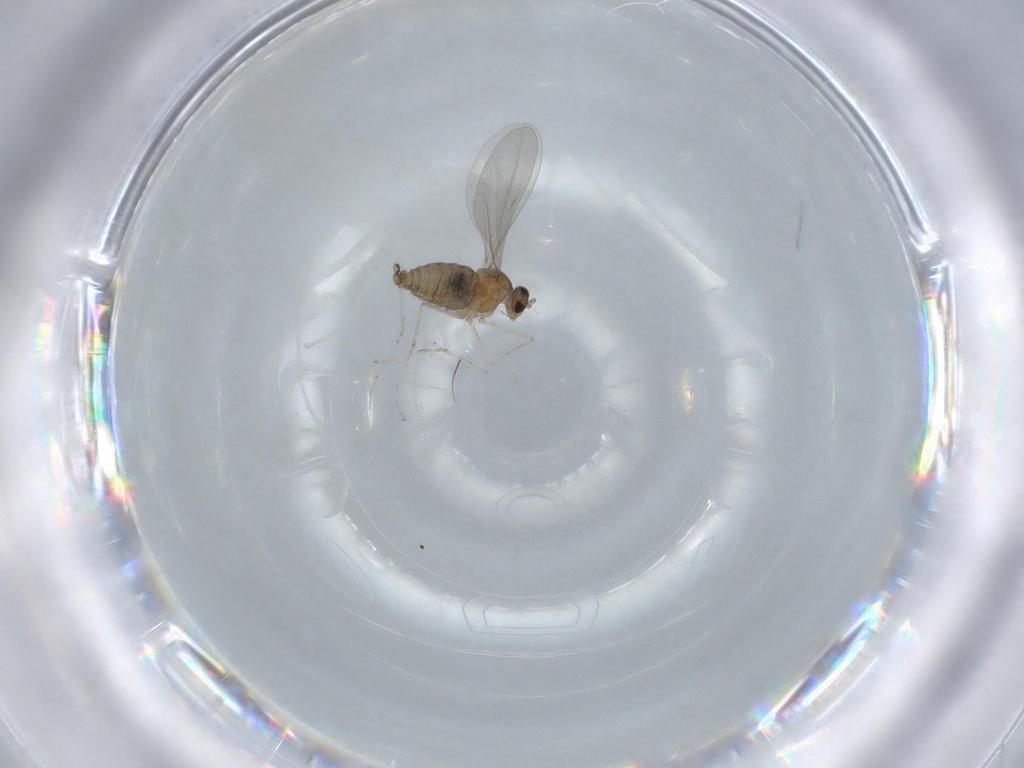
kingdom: Animalia
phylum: Arthropoda
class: Insecta
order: Diptera
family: Cecidomyiidae
